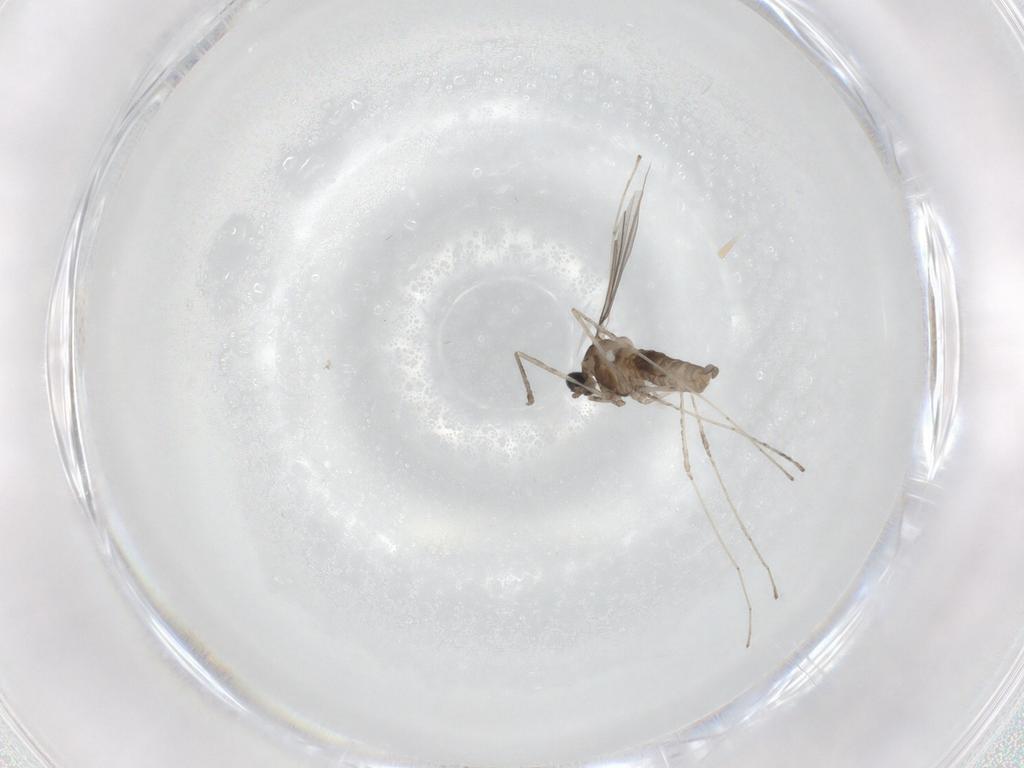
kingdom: Animalia
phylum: Arthropoda
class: Insecta
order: Diptera
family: Cecidomyiidae
